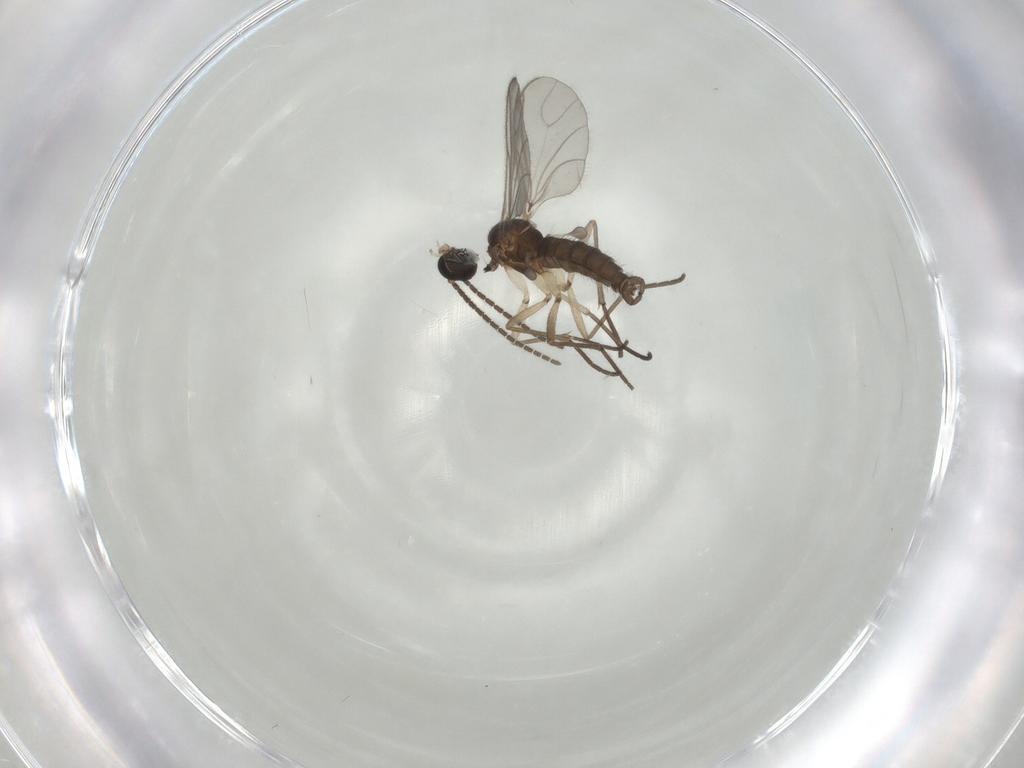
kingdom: Animalia
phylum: Arthropoda
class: Insecta
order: Diptera
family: Sciaridae
